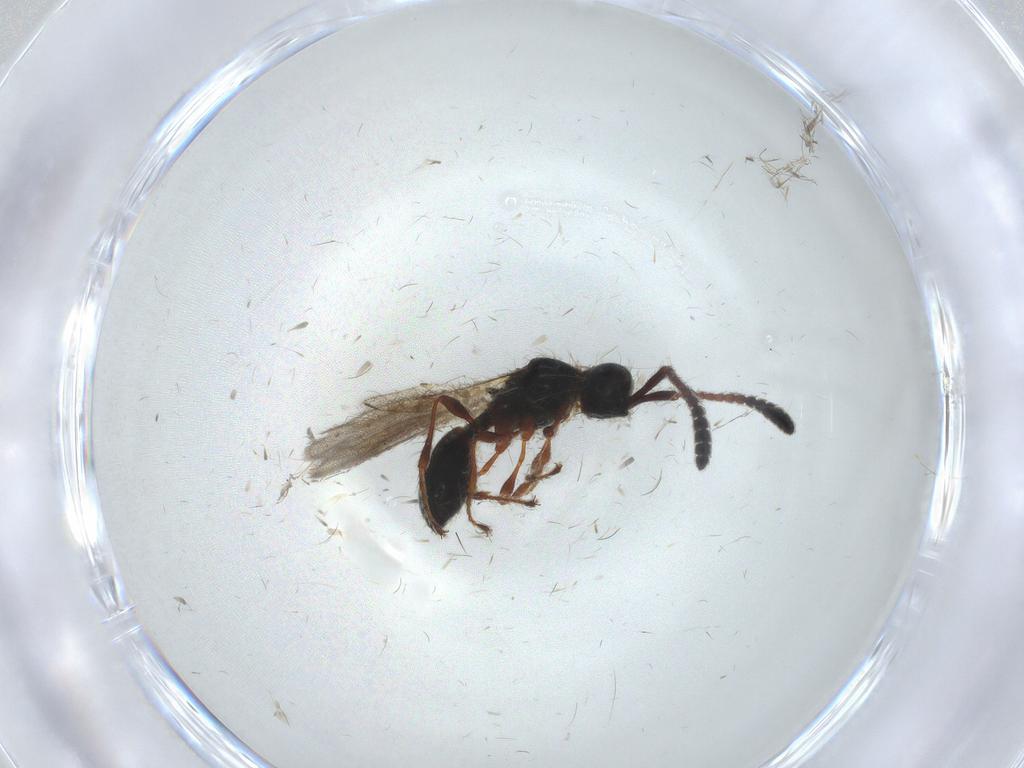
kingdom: Animalia
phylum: Arthropoda
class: Insecta
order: Hymenoptera
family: Diapriidae
